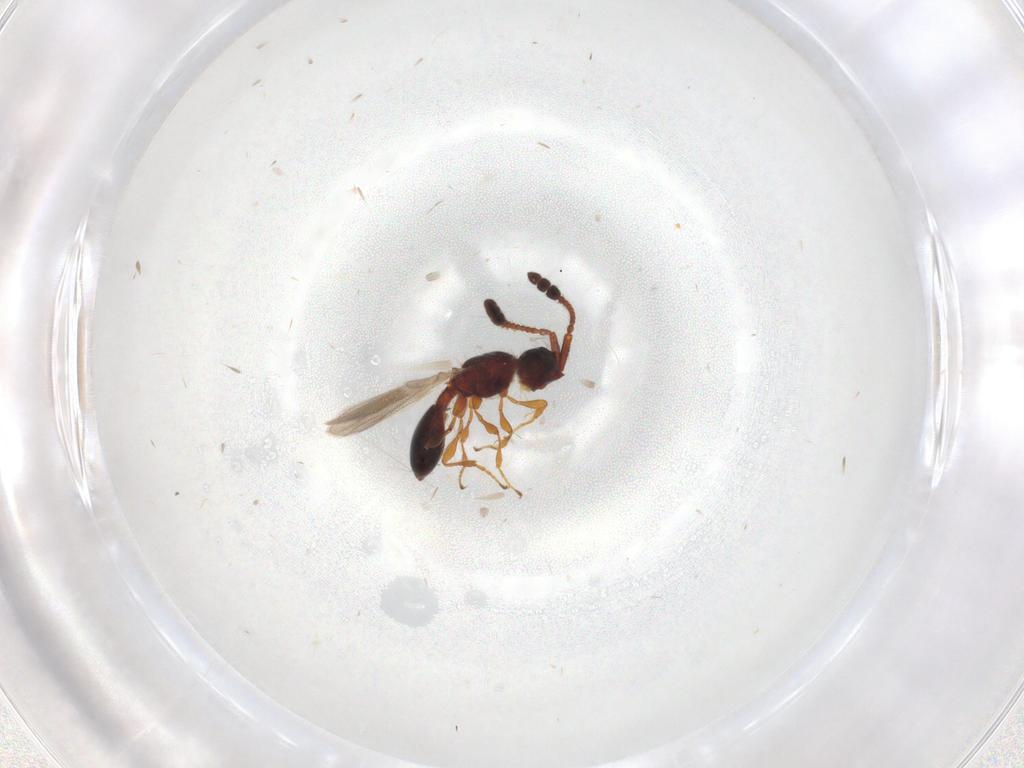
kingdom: Animalia
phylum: Arthropoda
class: Insecta
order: Hymenoptera
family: Diapriidae
